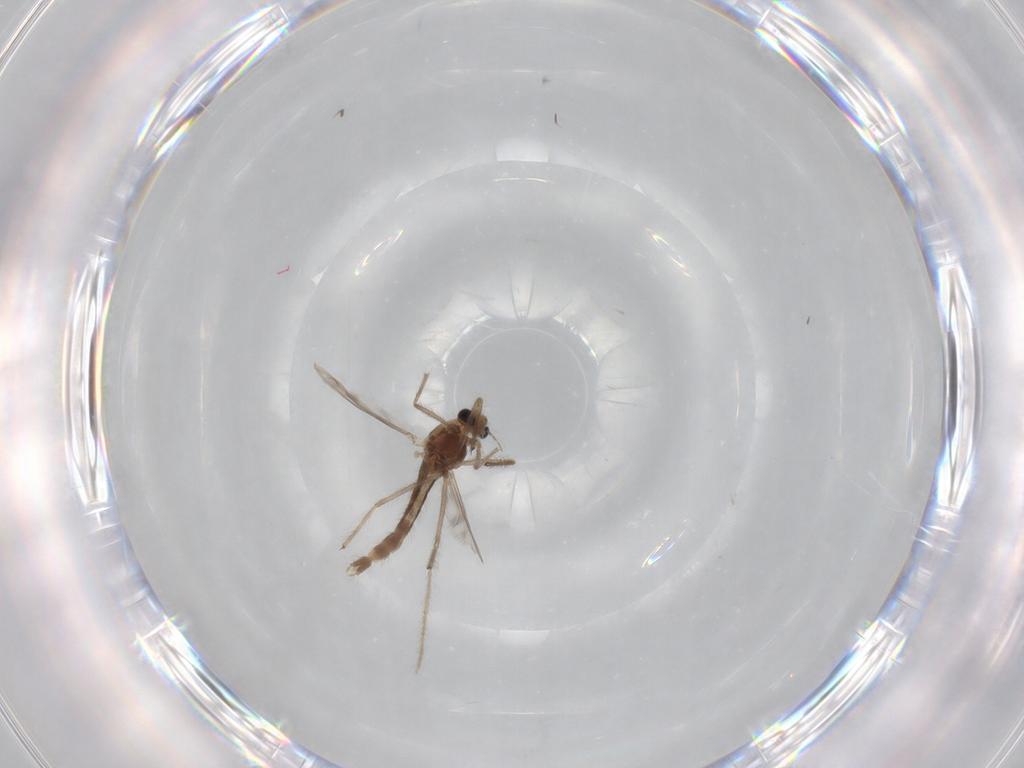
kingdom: Animalia
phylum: Arthropoda
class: Insecta
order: Diptera
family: Chironomidae
